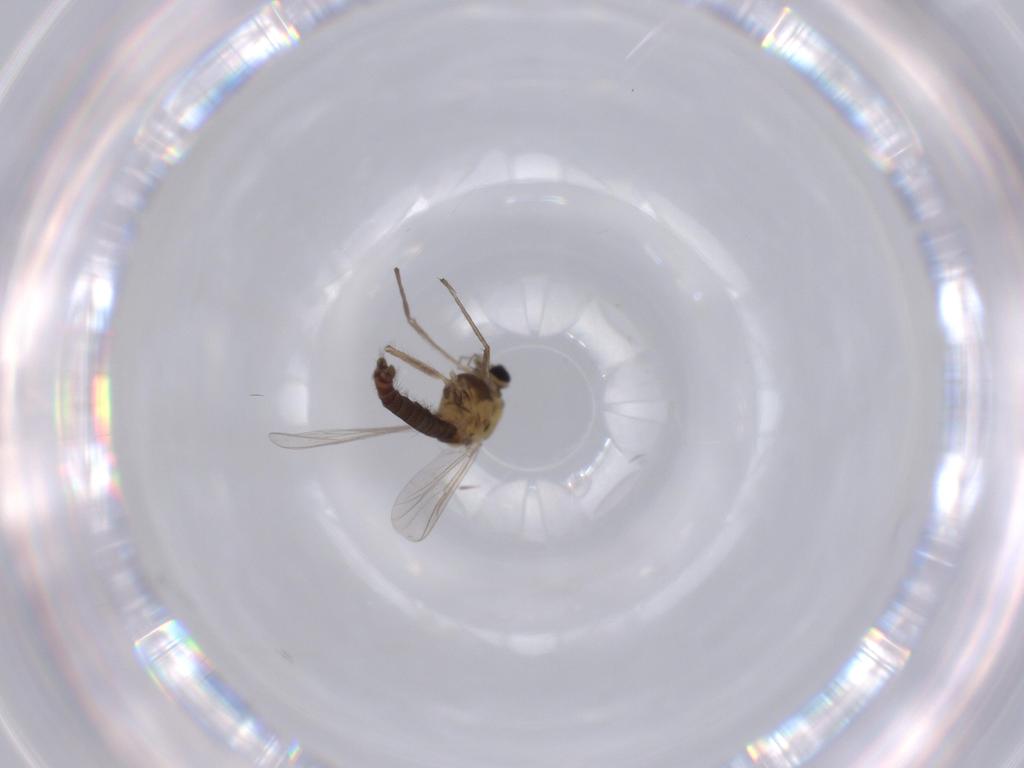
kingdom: Animalia
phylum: Arthropoda
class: Insecta
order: Diptera
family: Chironomidae
